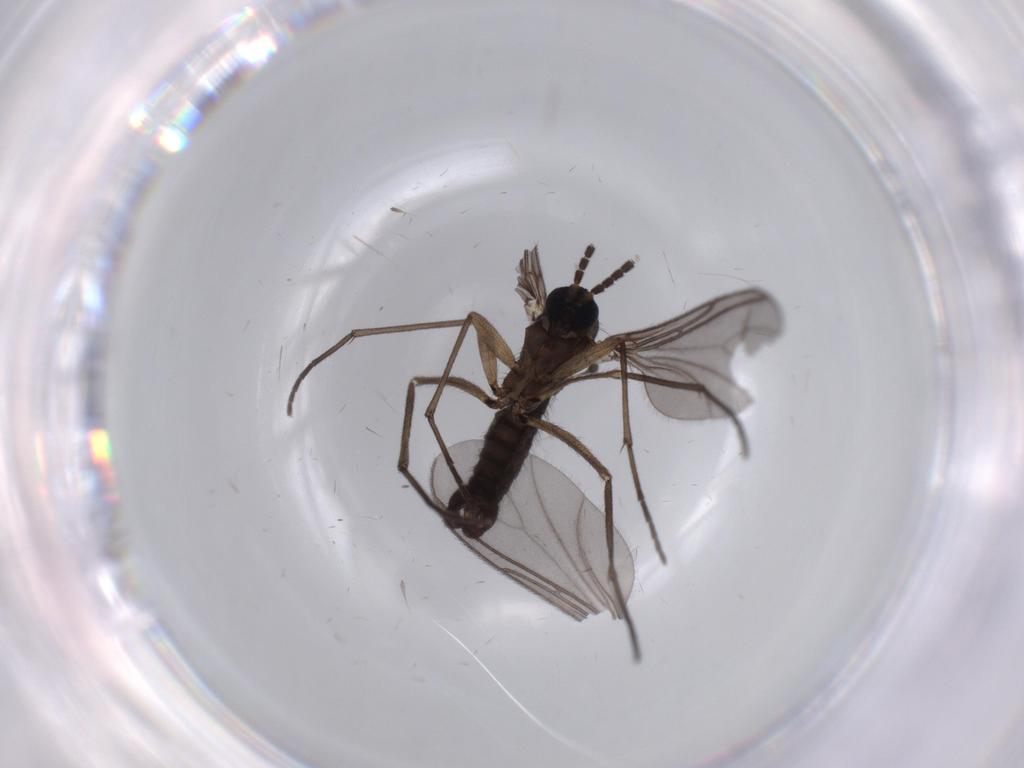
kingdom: Animalia
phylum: Arthropoda
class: Insecta
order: Diptera
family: Sciaridae
